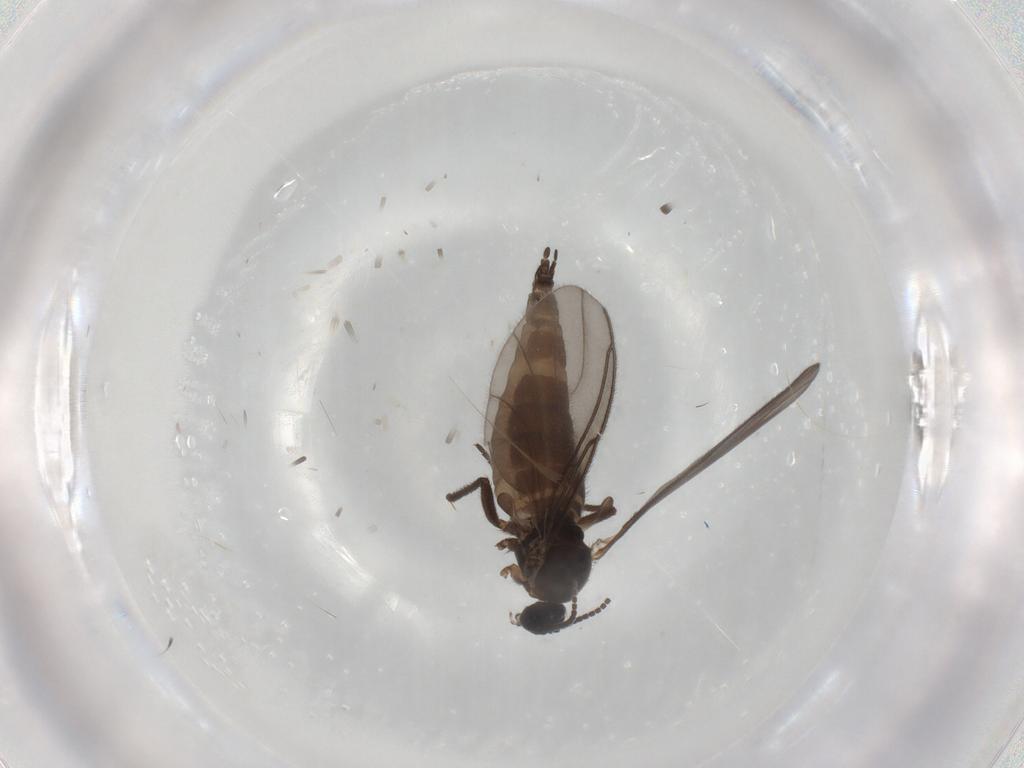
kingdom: Animalia
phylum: Arthropoda
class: Insecta
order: Diptera
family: Sciaridae
